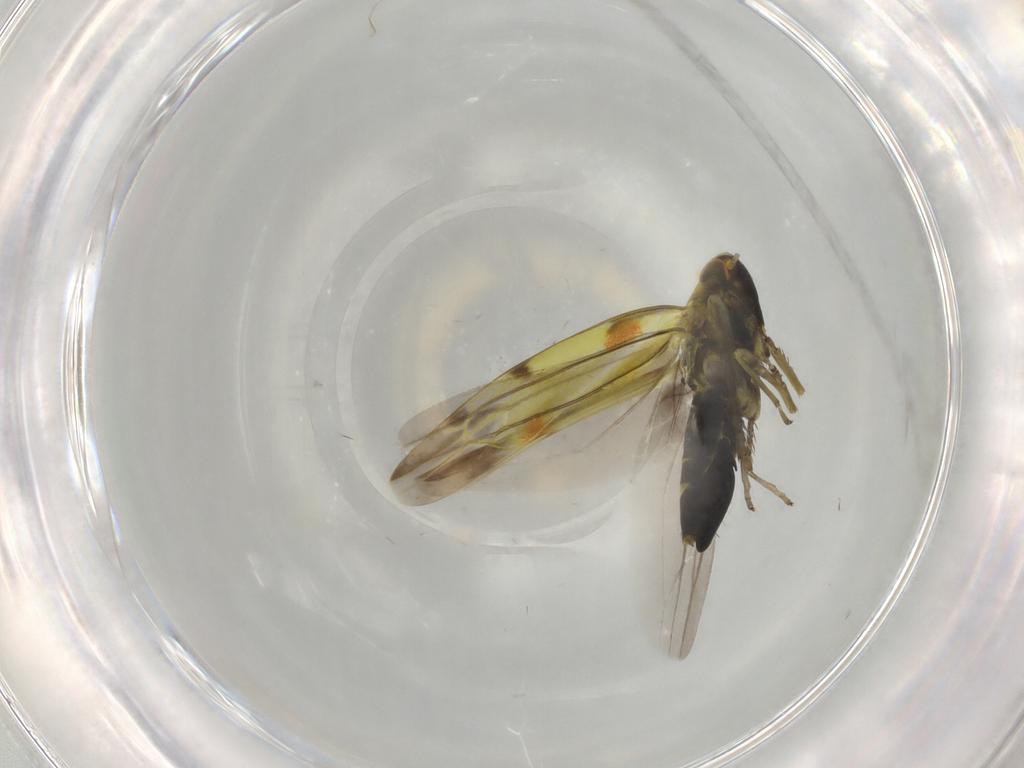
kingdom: Animalia
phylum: Arthropoda
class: Insecta
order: Hemiptera
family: Cicadellidae
